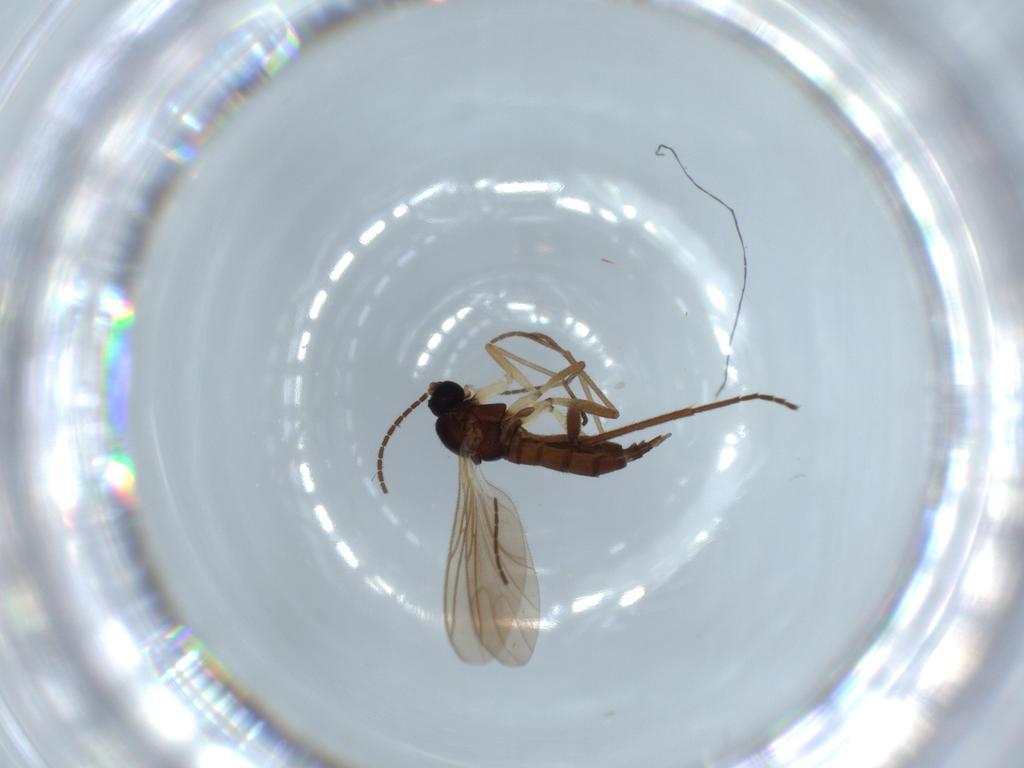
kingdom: Animalia
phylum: Arthropoda
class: Insecta
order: Diptera
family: Sciaridae
